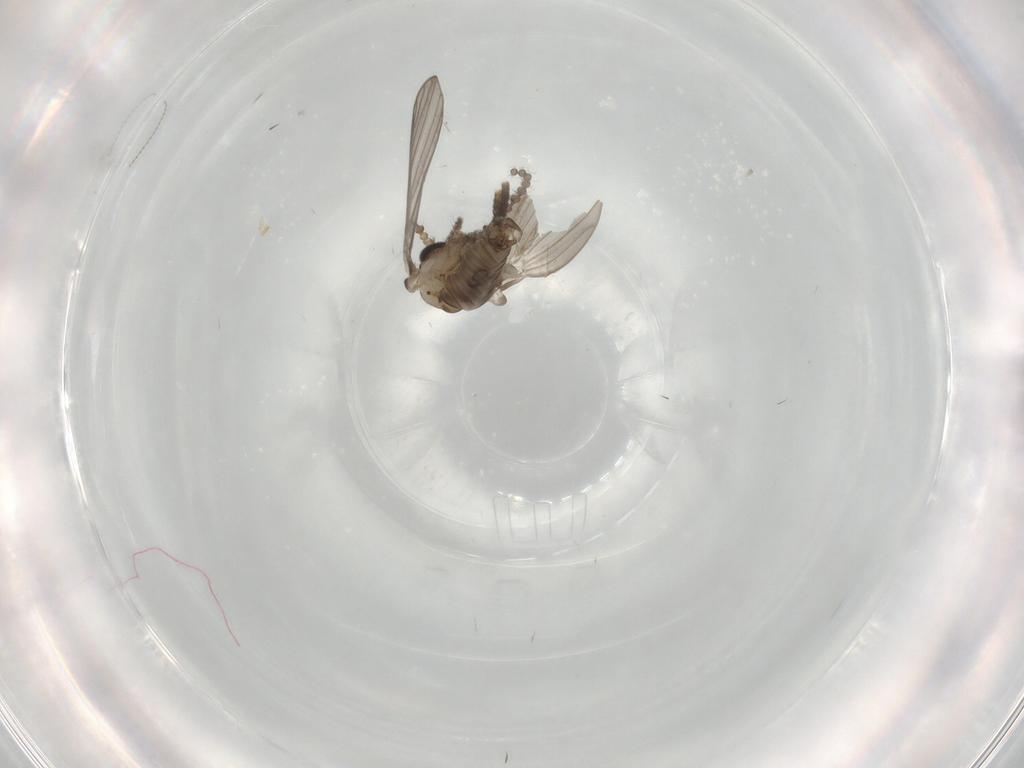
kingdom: Animalia
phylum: Arthropoda
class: Insecta
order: Diptera
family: Psychodidae
